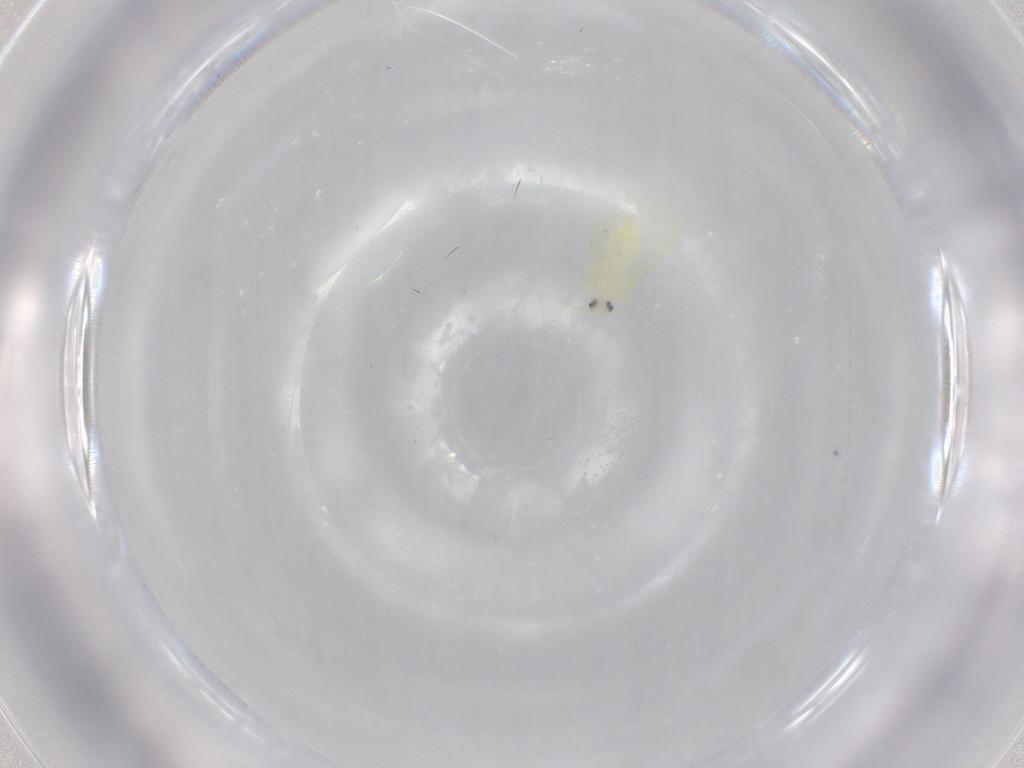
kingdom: Animalia
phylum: Arthropoda
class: Insecta
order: Hemiptera
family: Aleyrodidae
